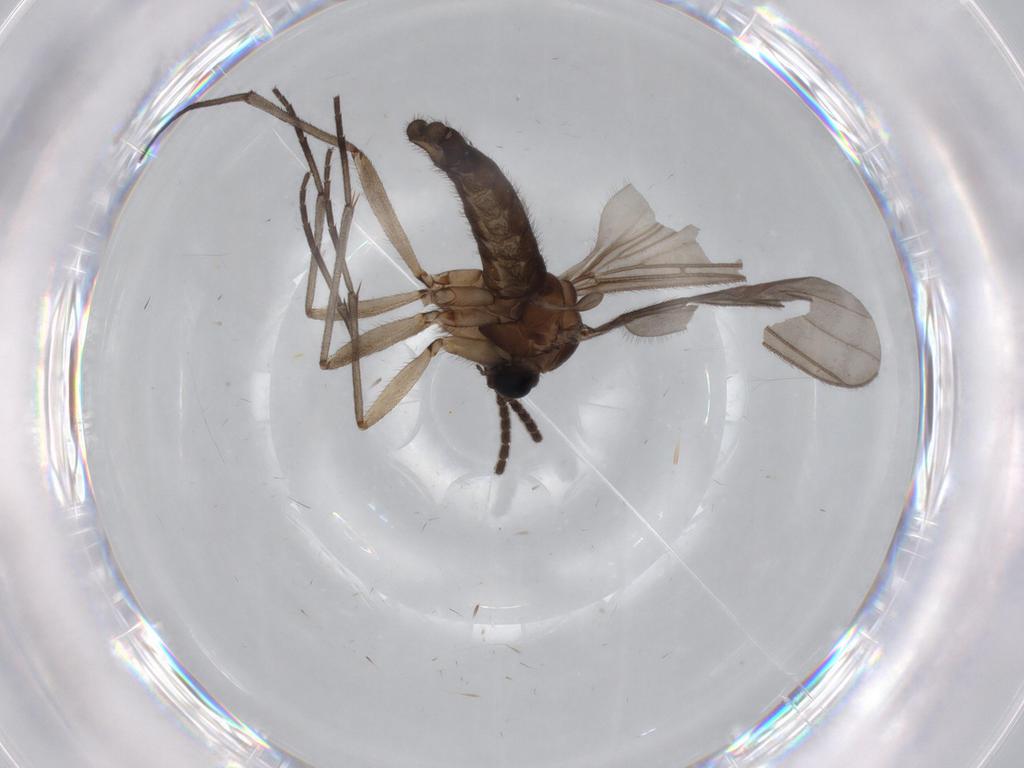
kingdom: Animalia
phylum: Arthropoda
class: Insecta
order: Diptera
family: Sciaridae
